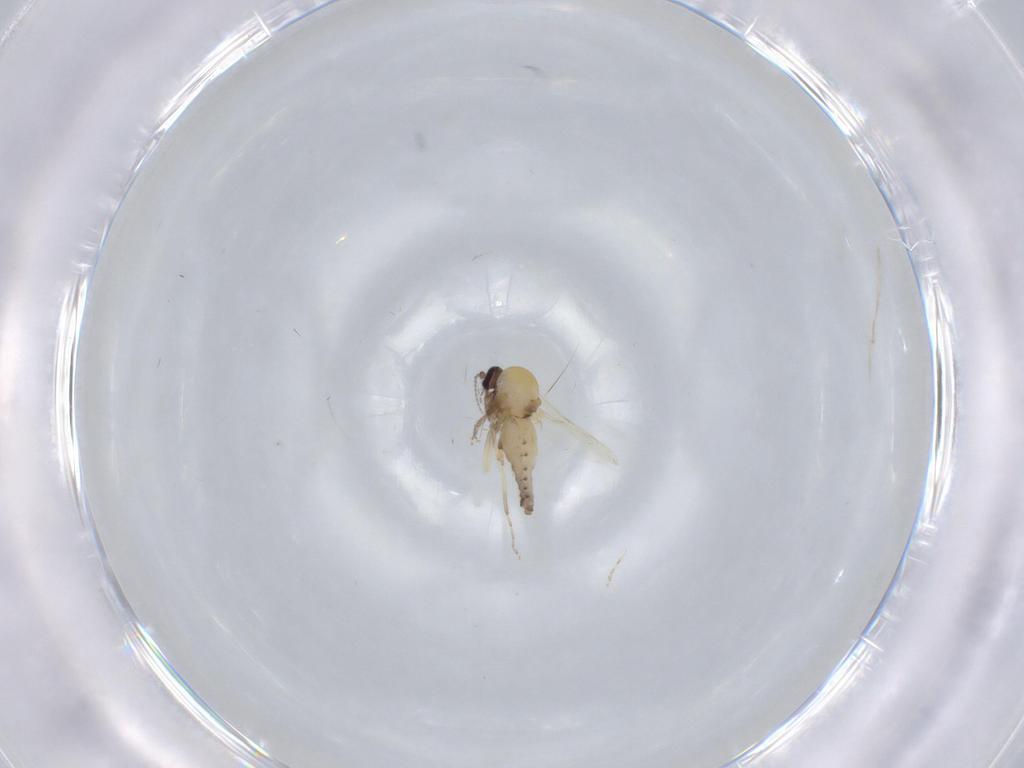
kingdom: Animalia
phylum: Arthropoda
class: Insecta
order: Diptera
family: Ceratopogonidae
